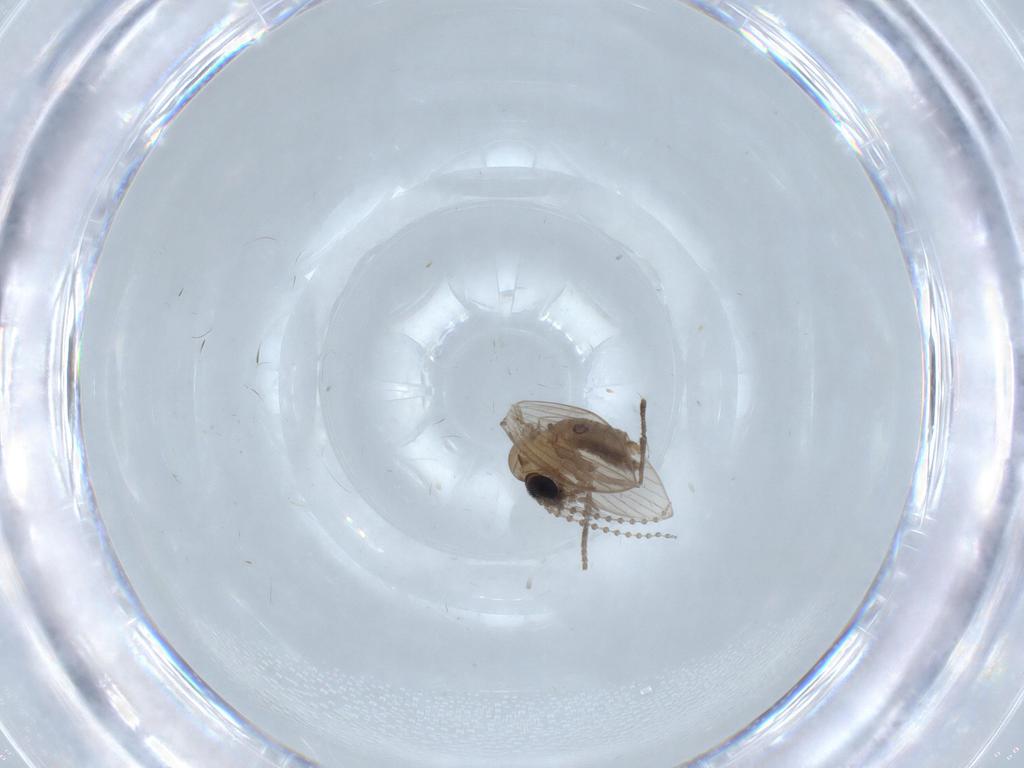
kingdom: Animalia
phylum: Arthropoda
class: Insecta
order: Diptera
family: Sciaridae
